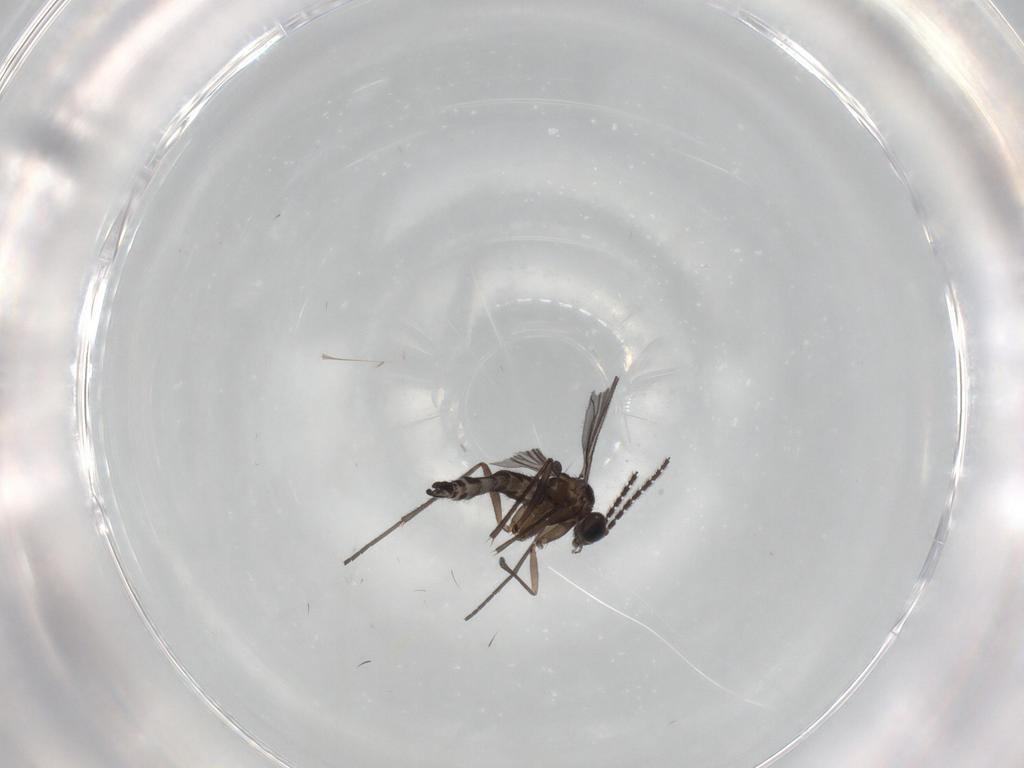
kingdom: Animalia
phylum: Arthropoda
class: Insecta
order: Diptera
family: Sciaridae
